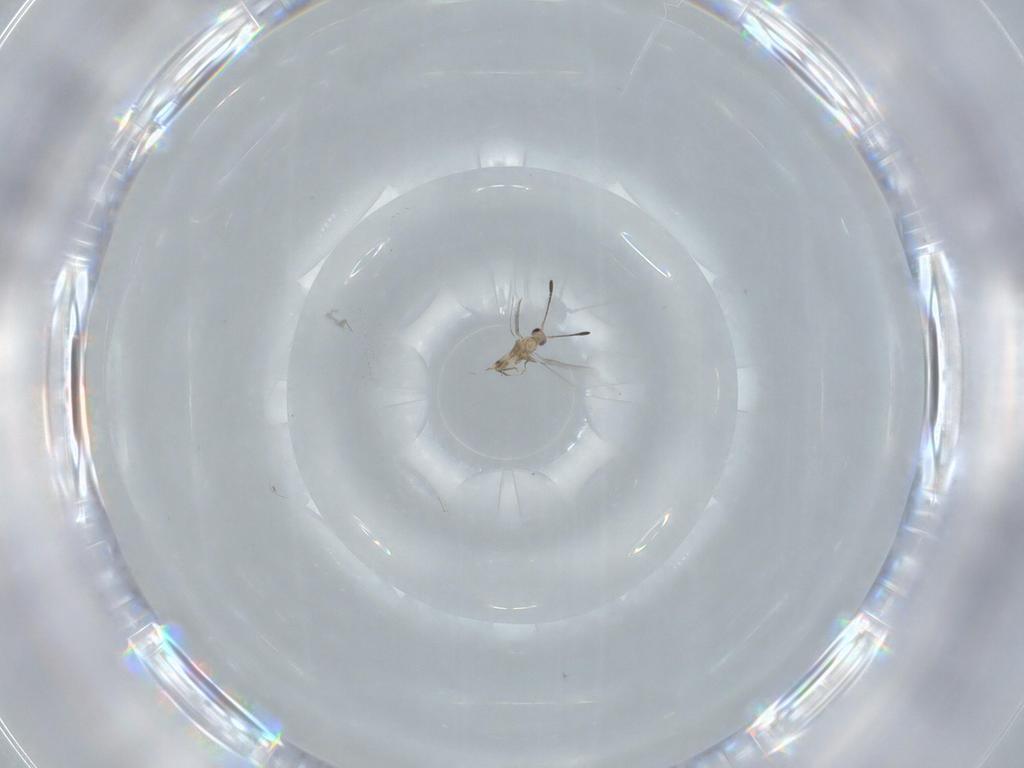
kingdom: Animalia
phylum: Arthropoda
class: Insecta
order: Hymenoptera
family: Mymaridae
